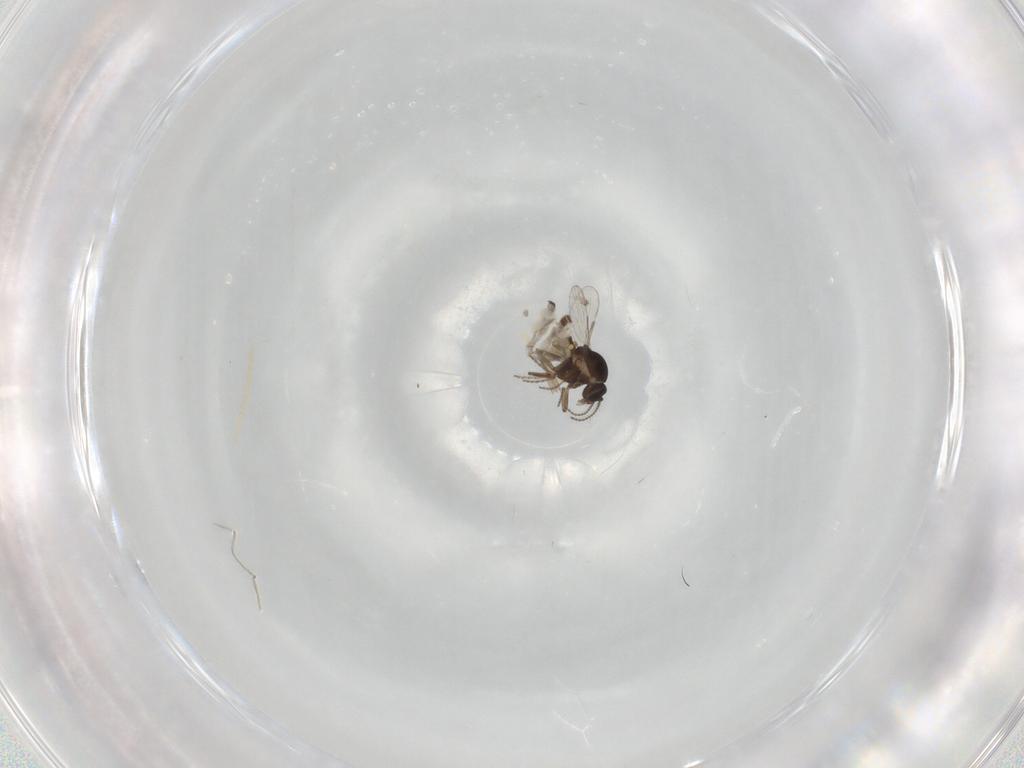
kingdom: Animalia
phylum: Arthropoda
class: Insecta
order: Diptera
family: Ceratopogonidae
